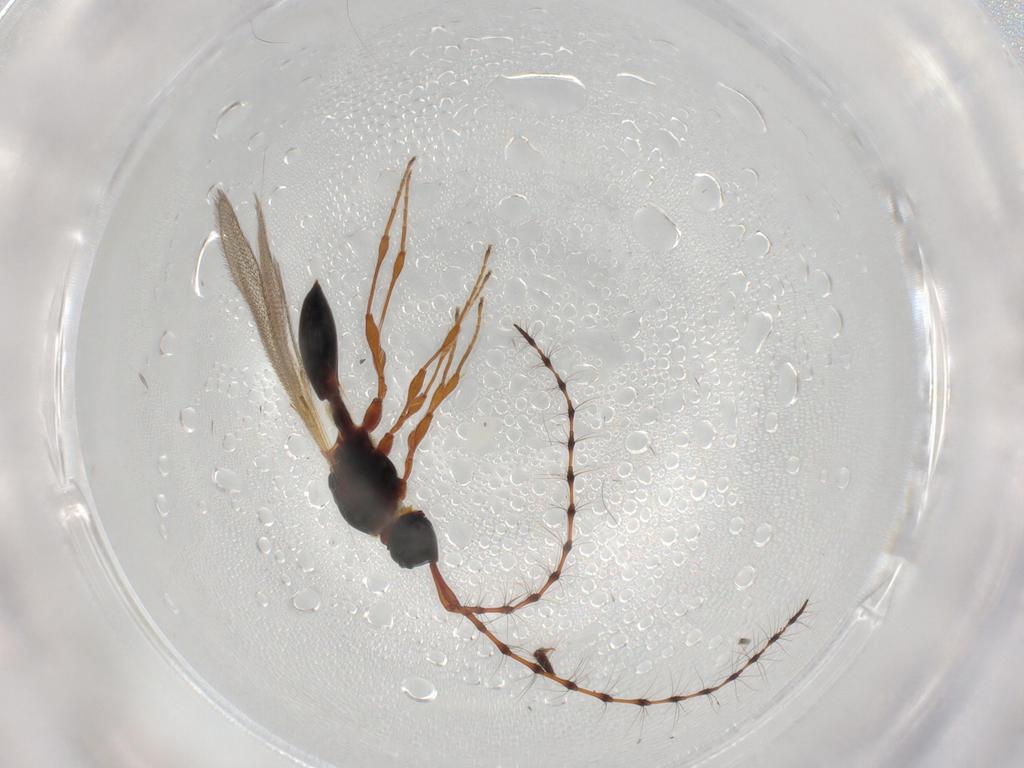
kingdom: Animalia
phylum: Arthropoda
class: Insecta
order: Hymenoptera
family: Diapriidae
